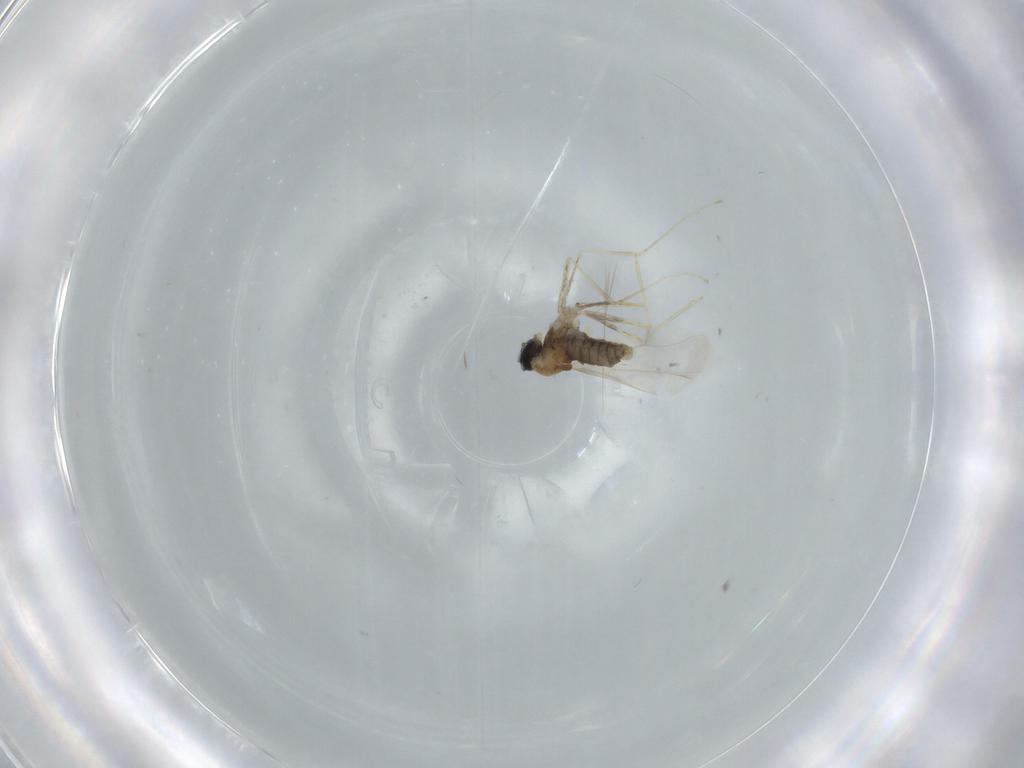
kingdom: Animalia
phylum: Arthropoda
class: Insecta
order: Diptera
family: Cecidomyiidae
